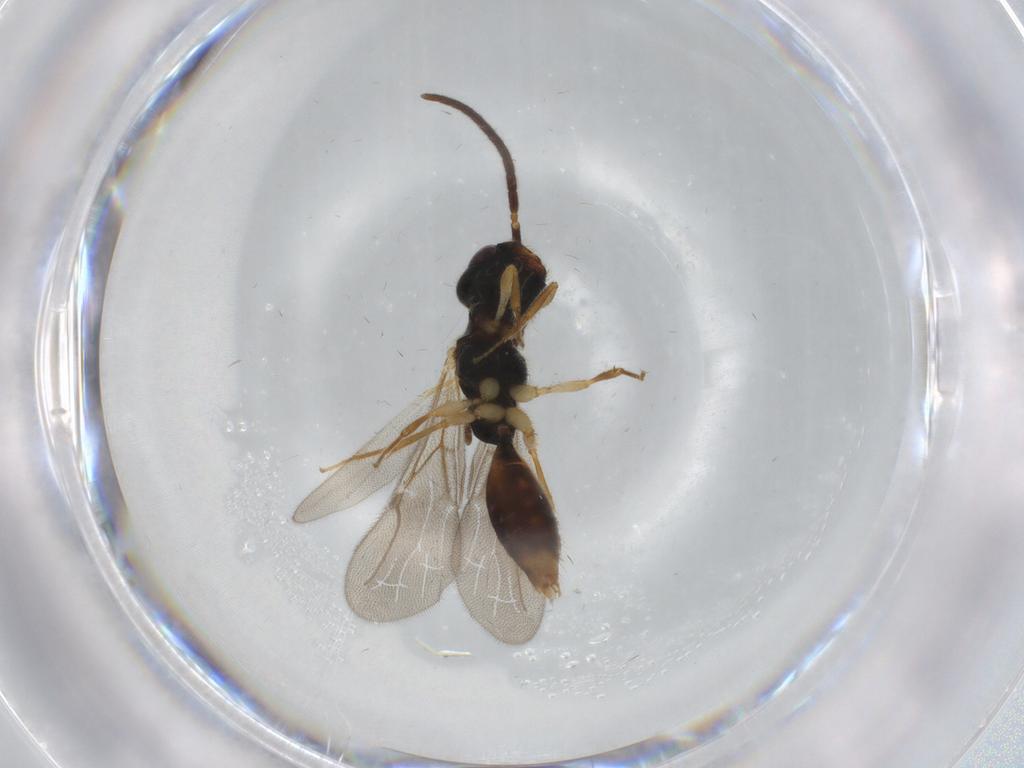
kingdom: Animalia
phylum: Arthropoda
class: Insecta
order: Hymenoptera
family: Bethylidae
